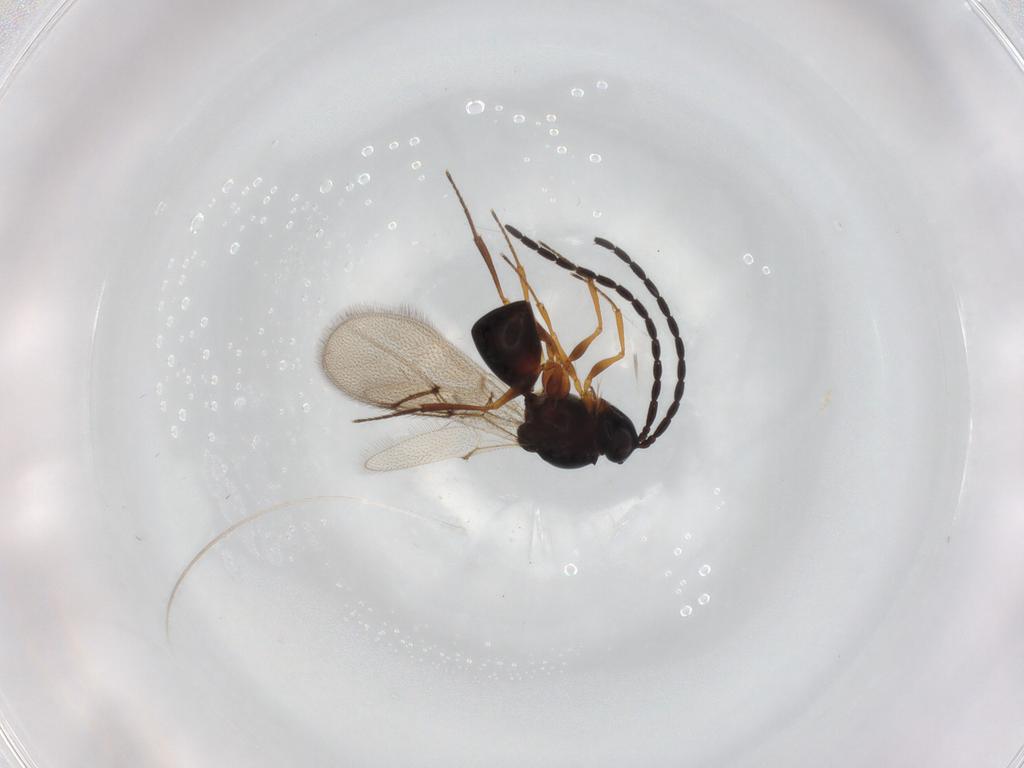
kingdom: Animalia
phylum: Arthropoda
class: Insecta
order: Hymenoptera
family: Figitidae
